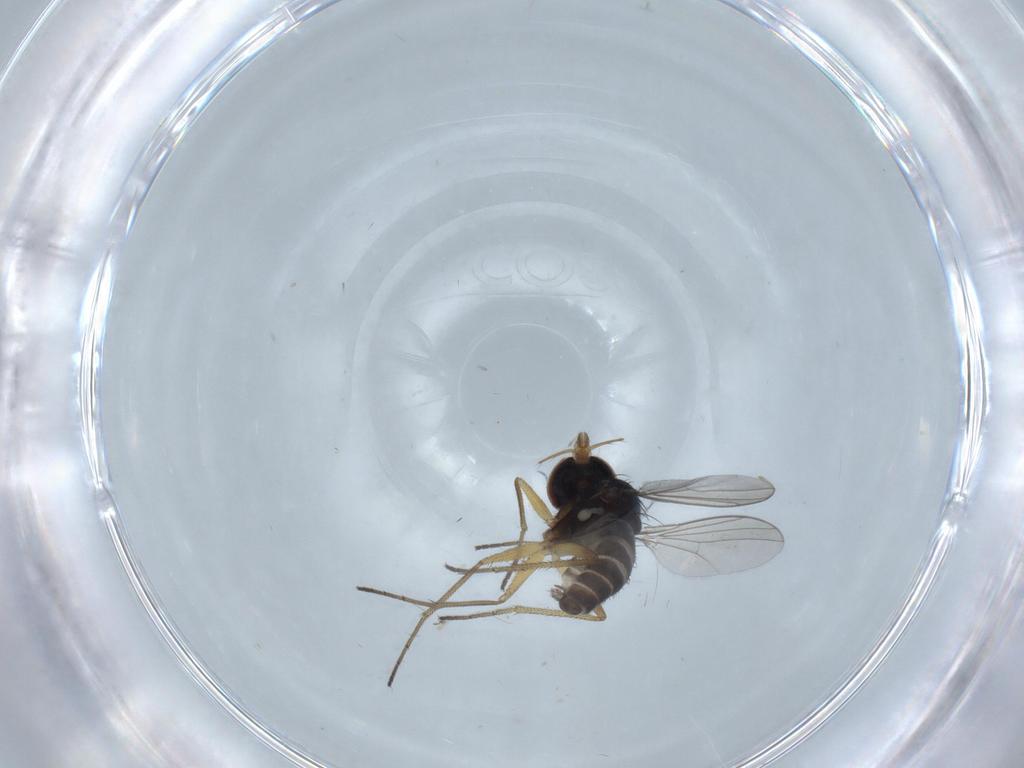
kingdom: Animalia
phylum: Arthropoda
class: Insecta
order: Diptera
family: Dolichopodidae
